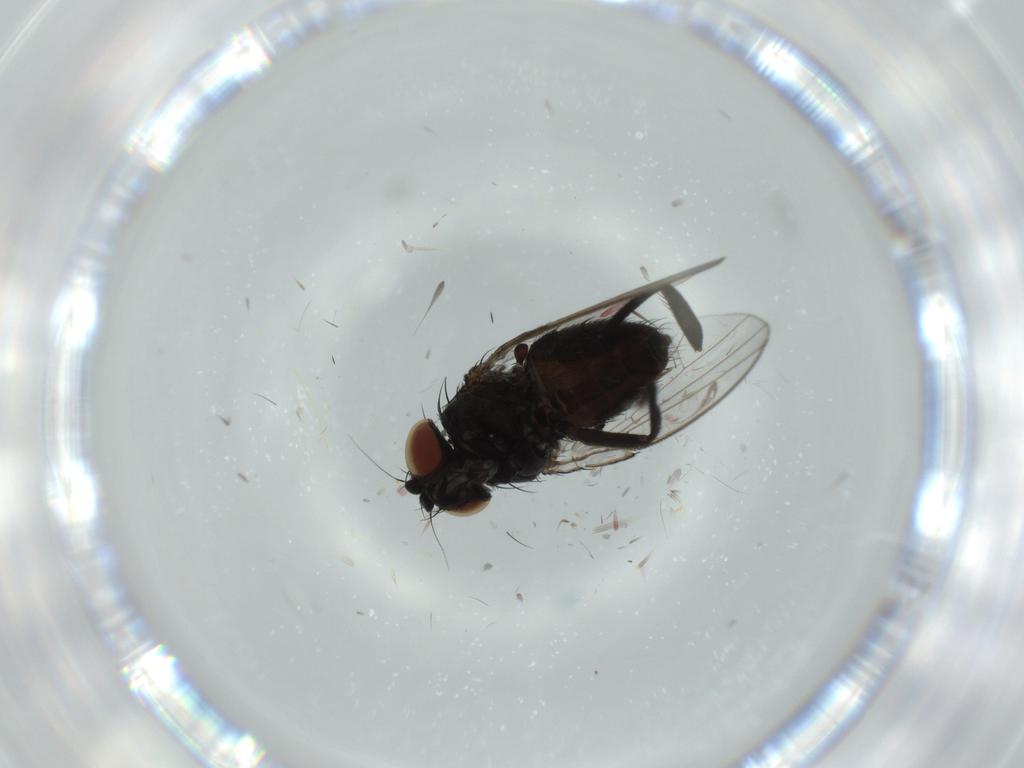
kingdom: Animalia
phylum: Arthropoda
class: Insecta
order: Diptera
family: Milichiidae
